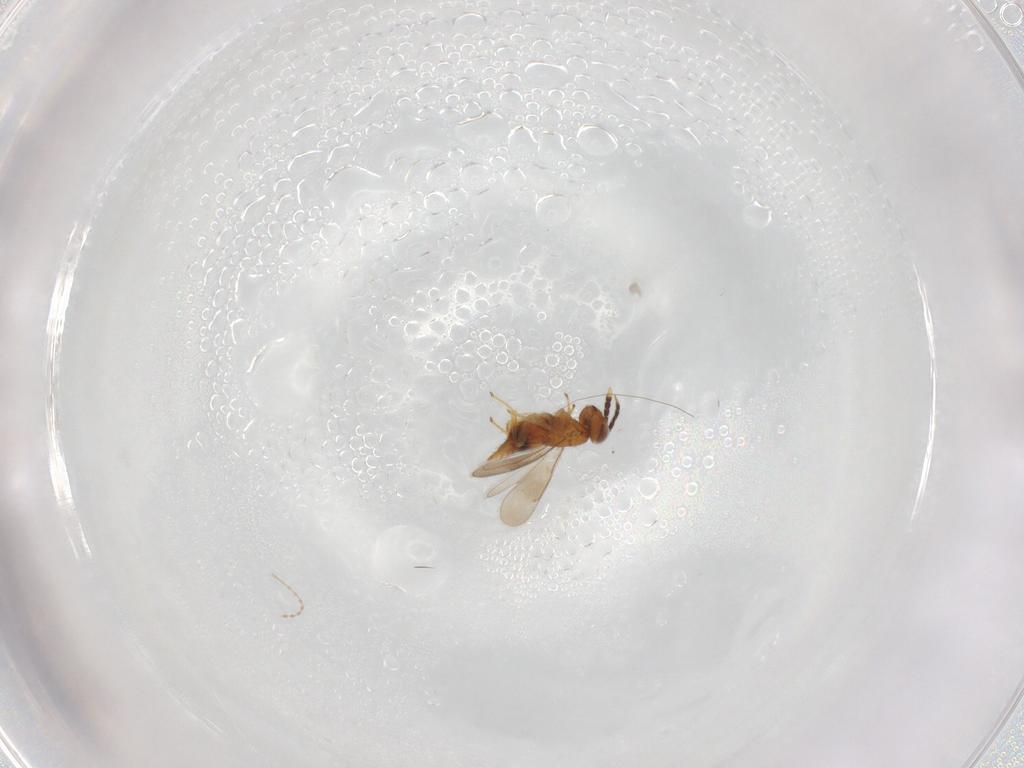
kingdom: Animalia
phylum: Arthropoda
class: Insecta
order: Hymenoptera
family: Aphelinidae
